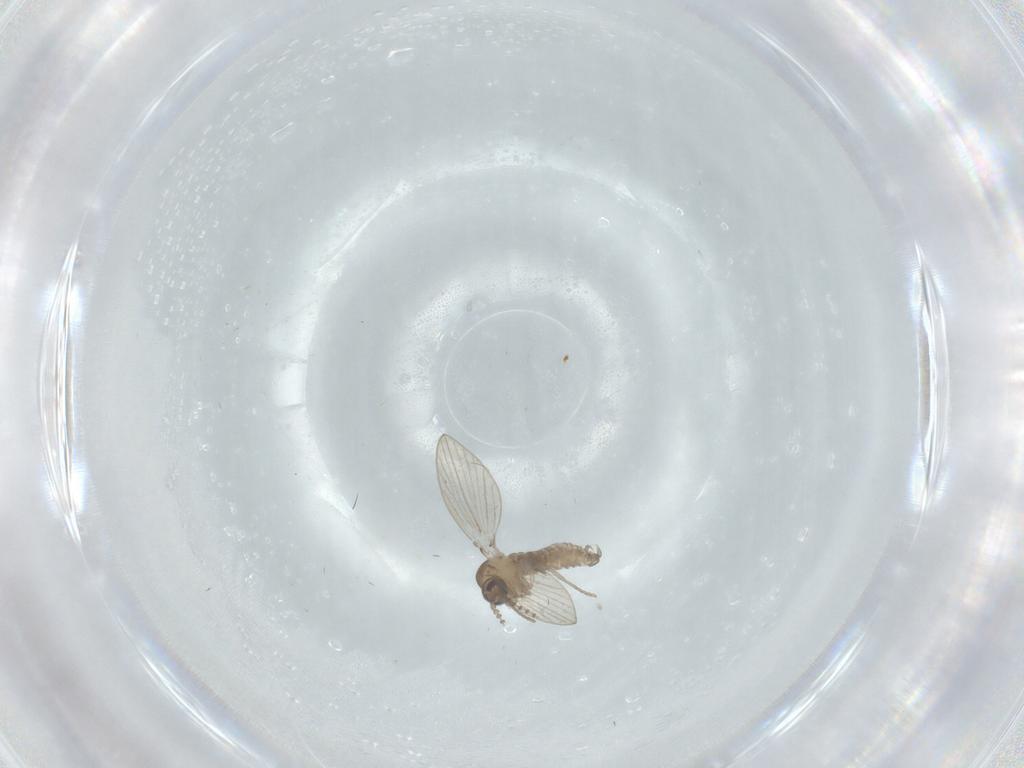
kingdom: Animalia
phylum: Arthropoda
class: Insecta
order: Diptera
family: Psychodidae
